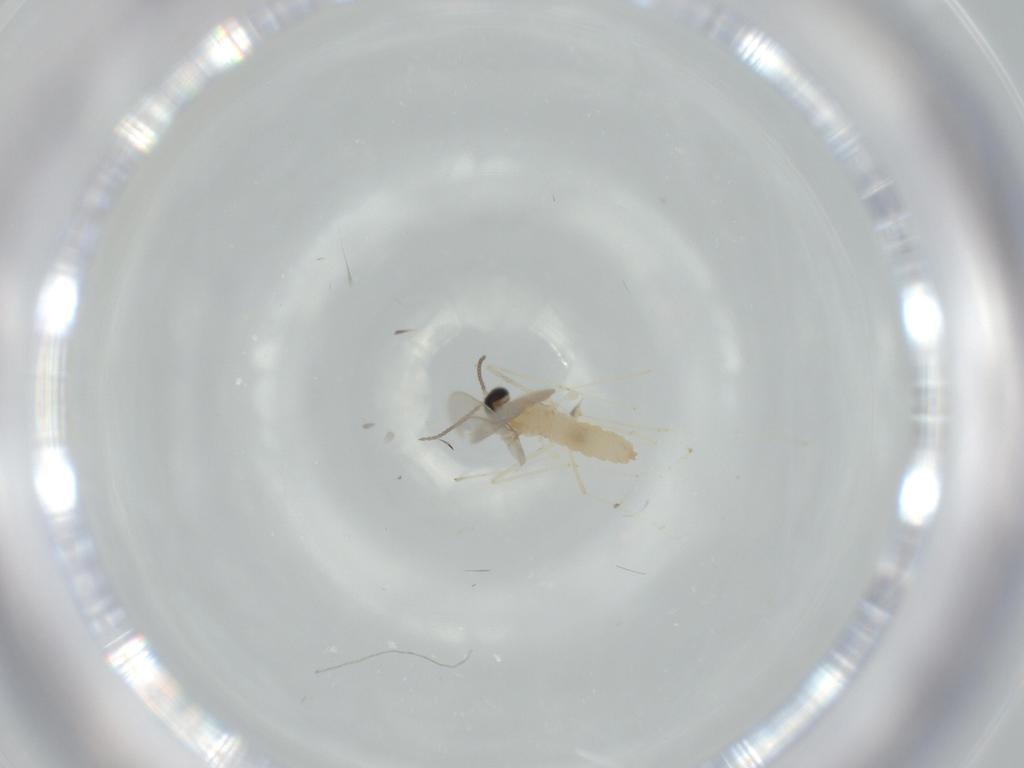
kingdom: Animalia
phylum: Arthropoda
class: Insecta
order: Diptera
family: Cecidomyiidae
